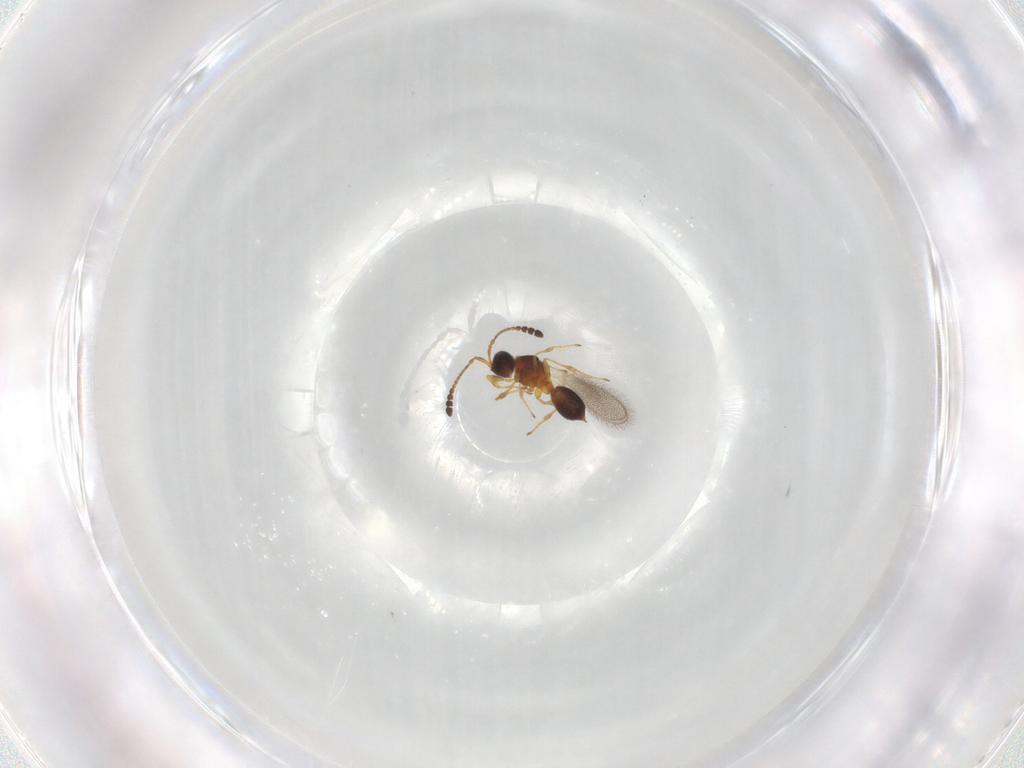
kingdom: Animalia
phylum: Arthropoda
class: Insecta
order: Hymenoptera
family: Diapriidae
